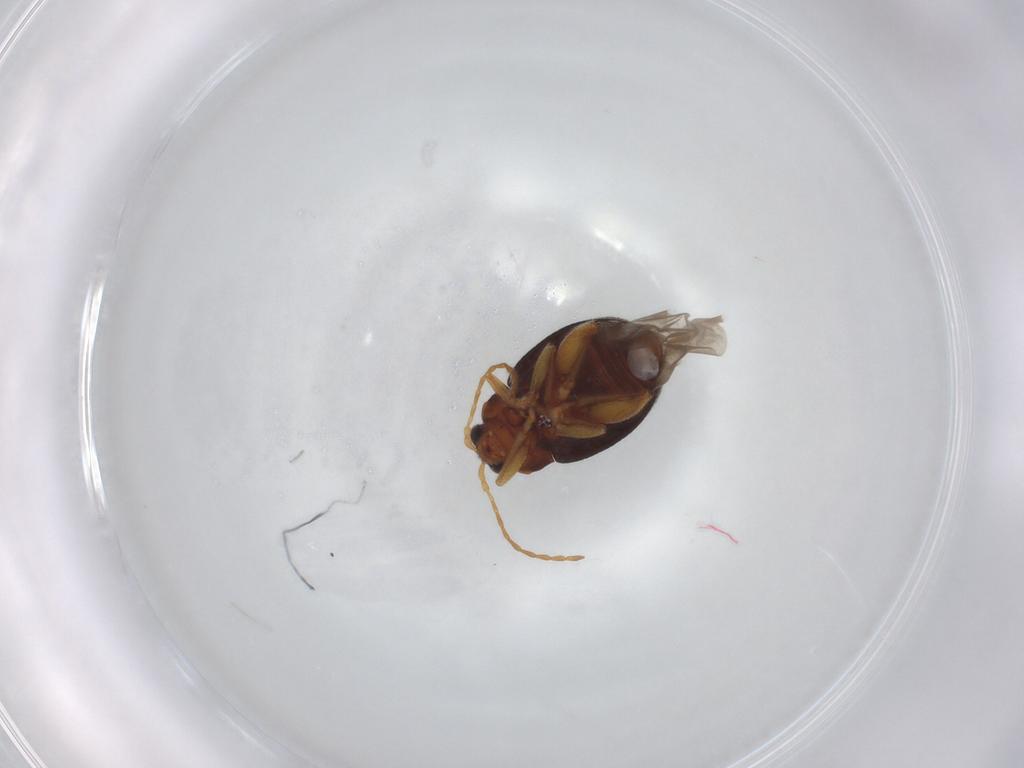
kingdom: Animalia
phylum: Arthropoda
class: Insecta
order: Coleoptera
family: Chrysomelidae
